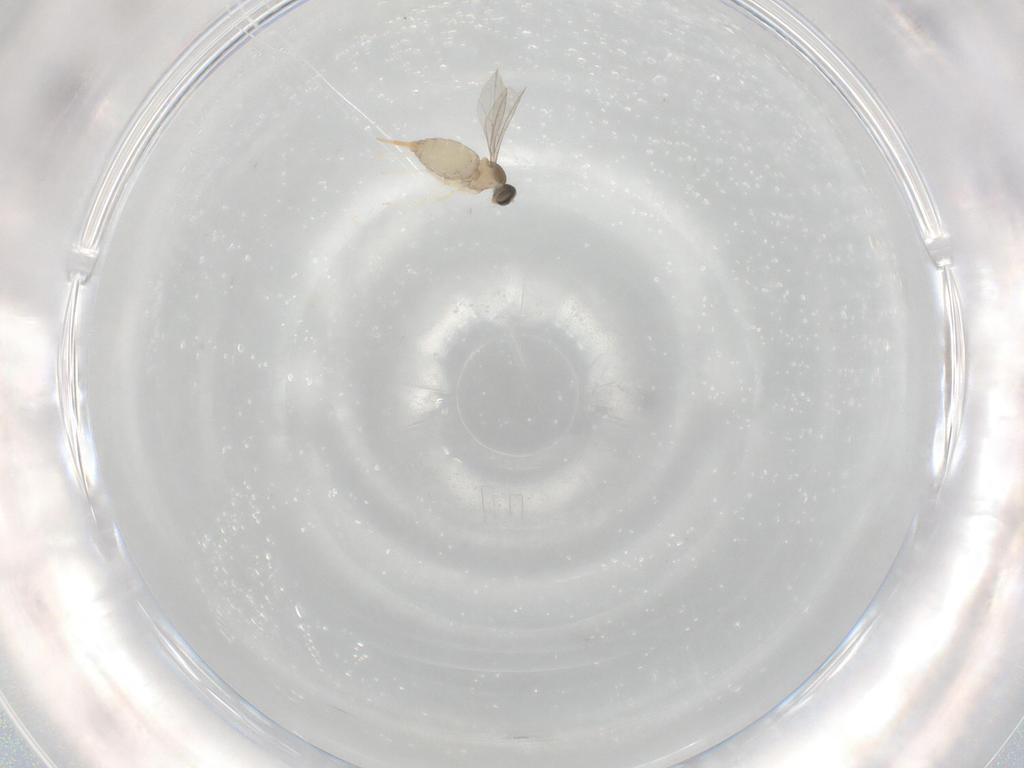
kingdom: Animalia
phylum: Arthropoda
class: Insecta
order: Diptera
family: Cecidomyiidae
